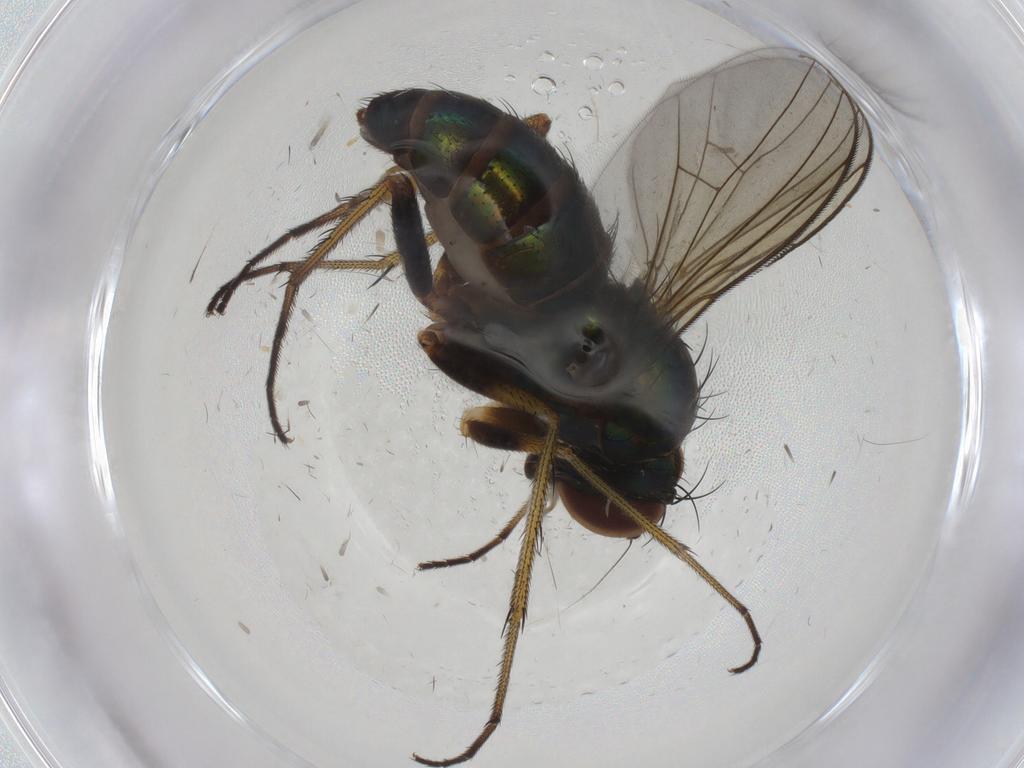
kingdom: Animalia
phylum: Arthropoda
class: Insecta
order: Diptera
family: Dolichopodidae
